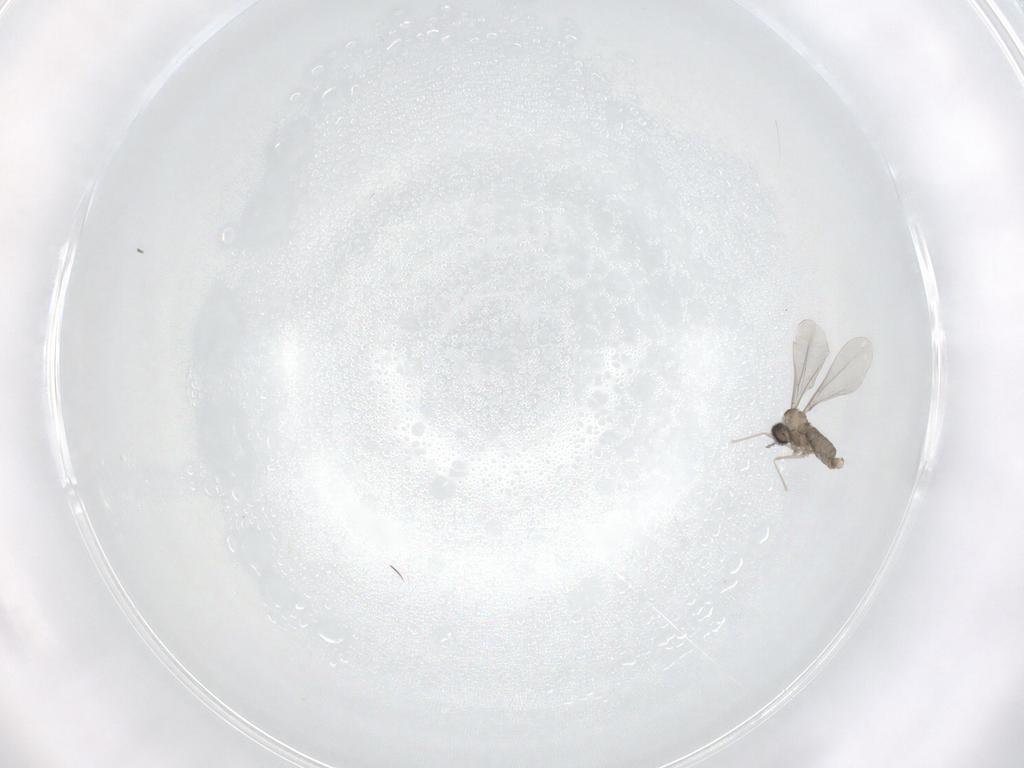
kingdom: Animalia
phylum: Arthropoda
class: Insecta
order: Diptera
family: Cecidomyiidae
